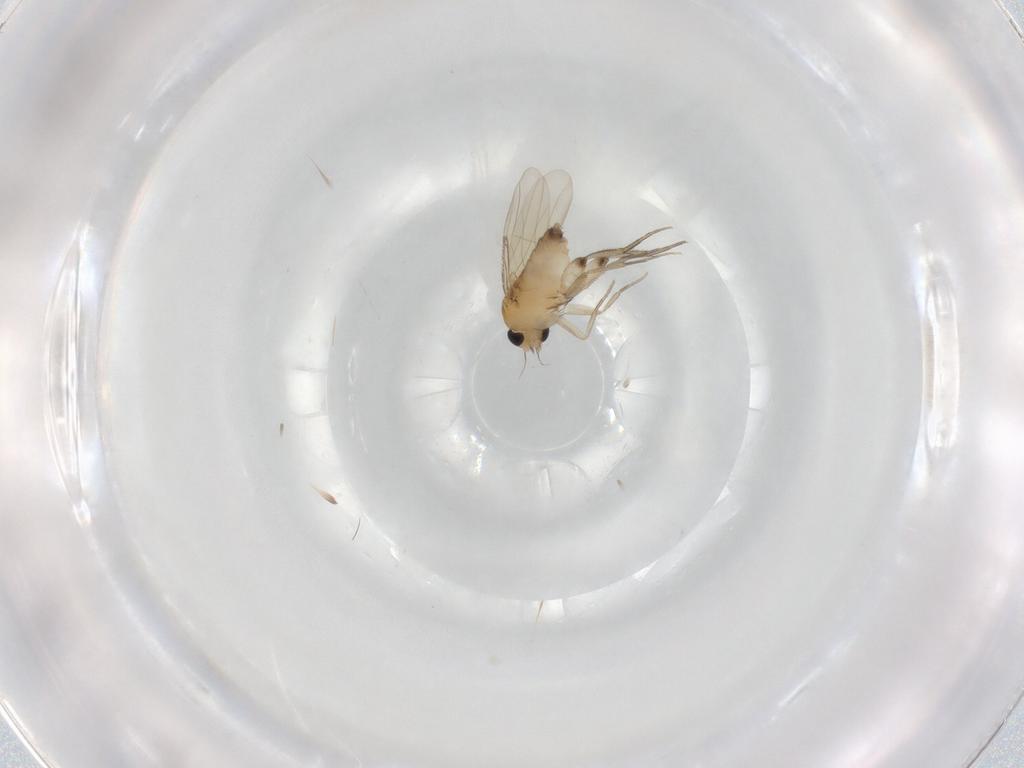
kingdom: Animalia
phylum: Arthropoda
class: Insecta
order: Diptera
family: Phoridae
